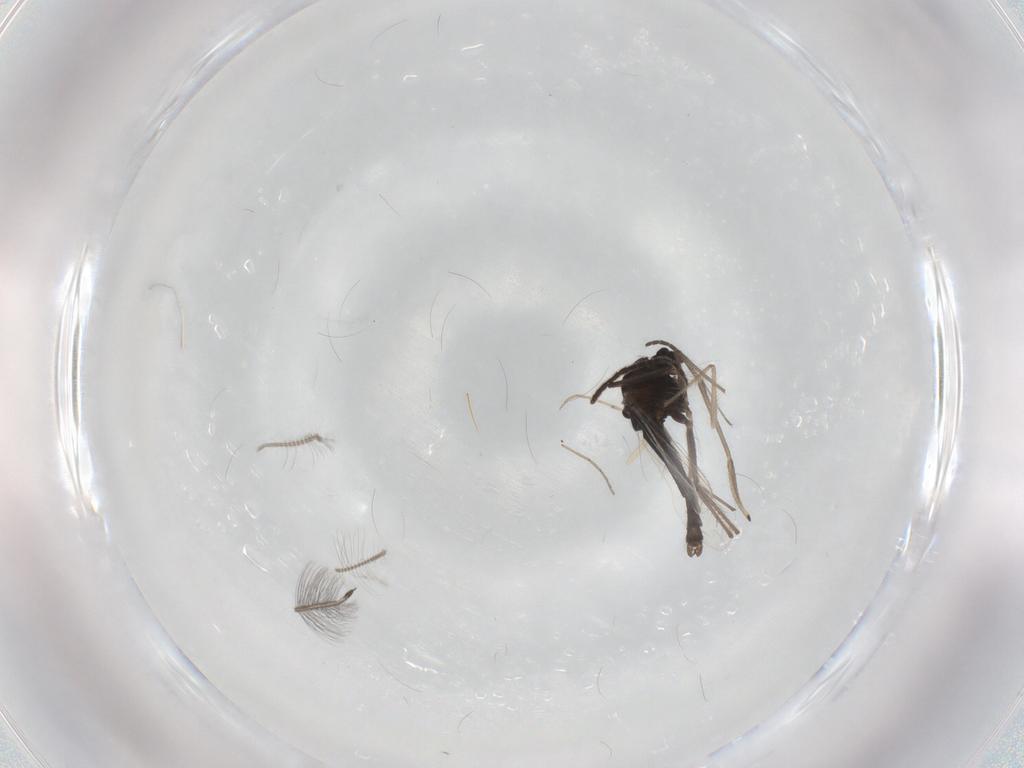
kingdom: Animalia
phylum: Arthropoda
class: Insecta
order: Diptera
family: Chironomidae
